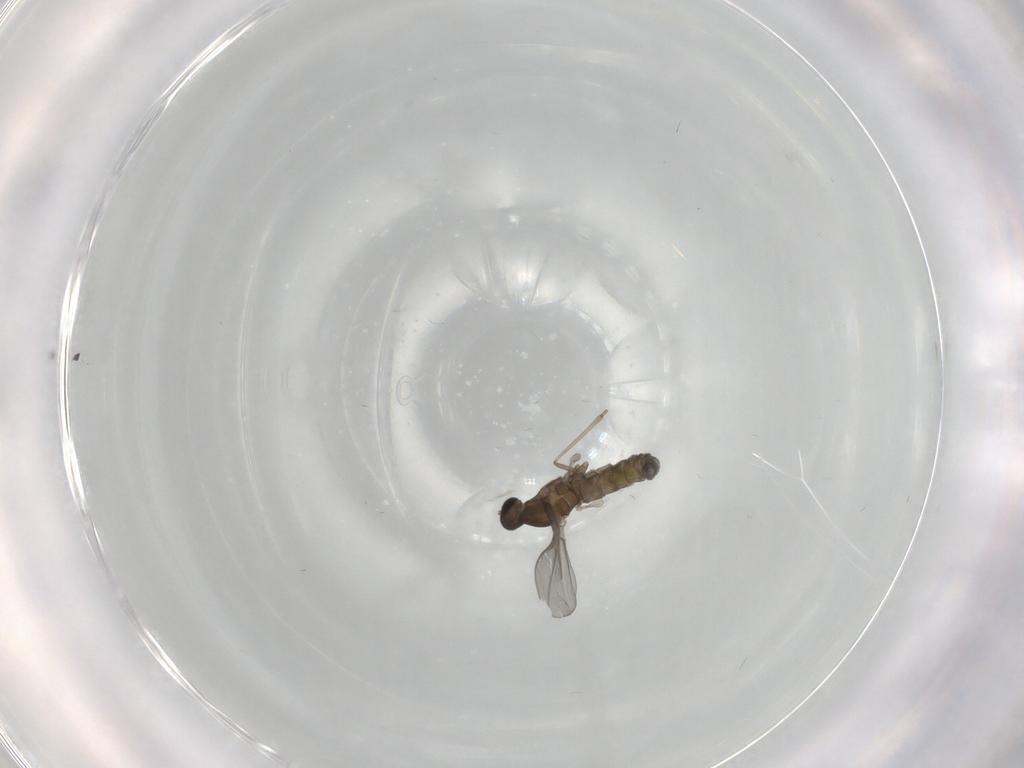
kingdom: Animalia
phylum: Arthropoda
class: Insecta
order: Diptera
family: Cecidomyiidae
